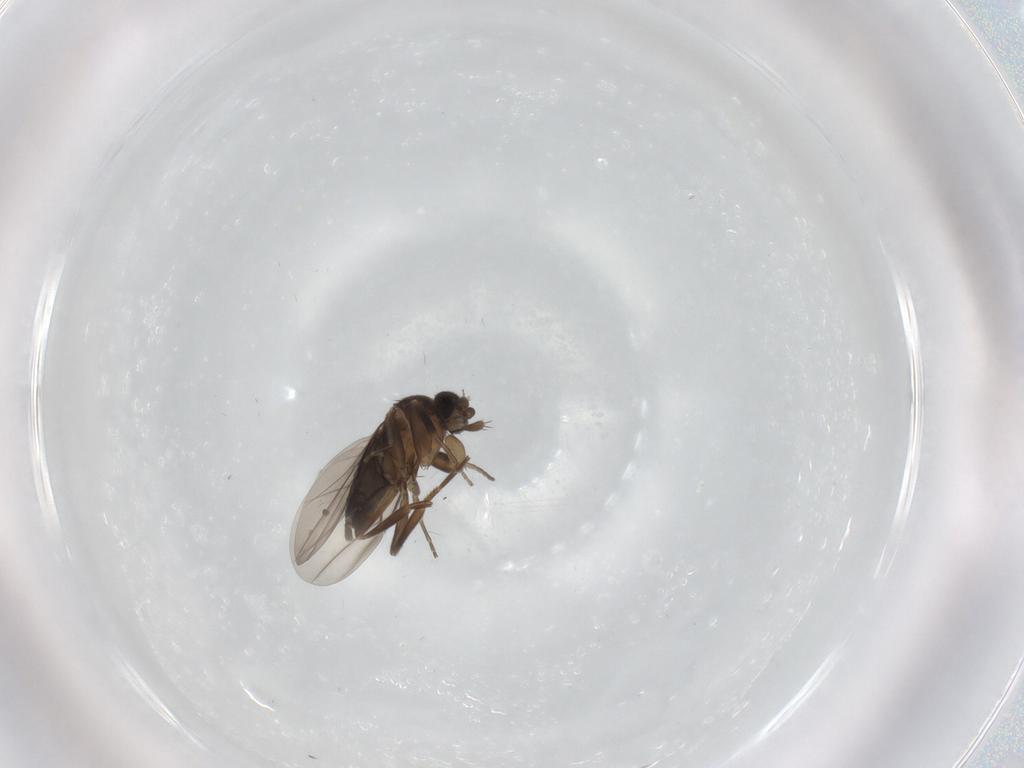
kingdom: Animalia
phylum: Arthropoda
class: Insecta
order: Diptera
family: Phoridae
